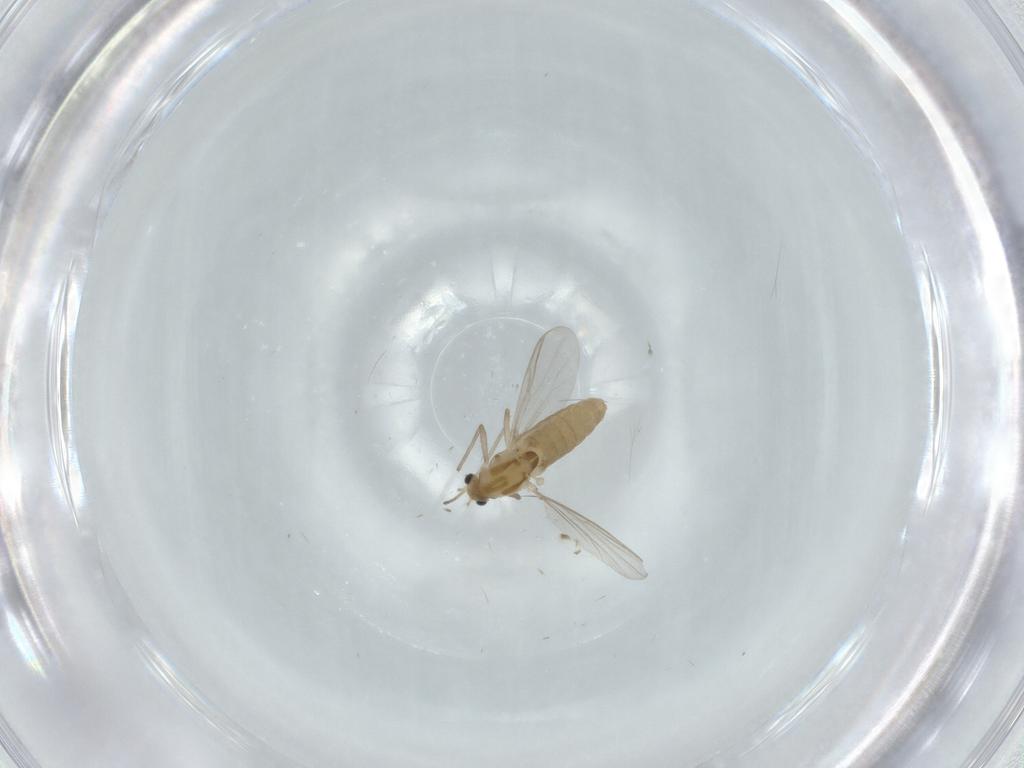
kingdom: Animalia
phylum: Arthropoda
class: Insecta
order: Diptera
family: Chironomidae
